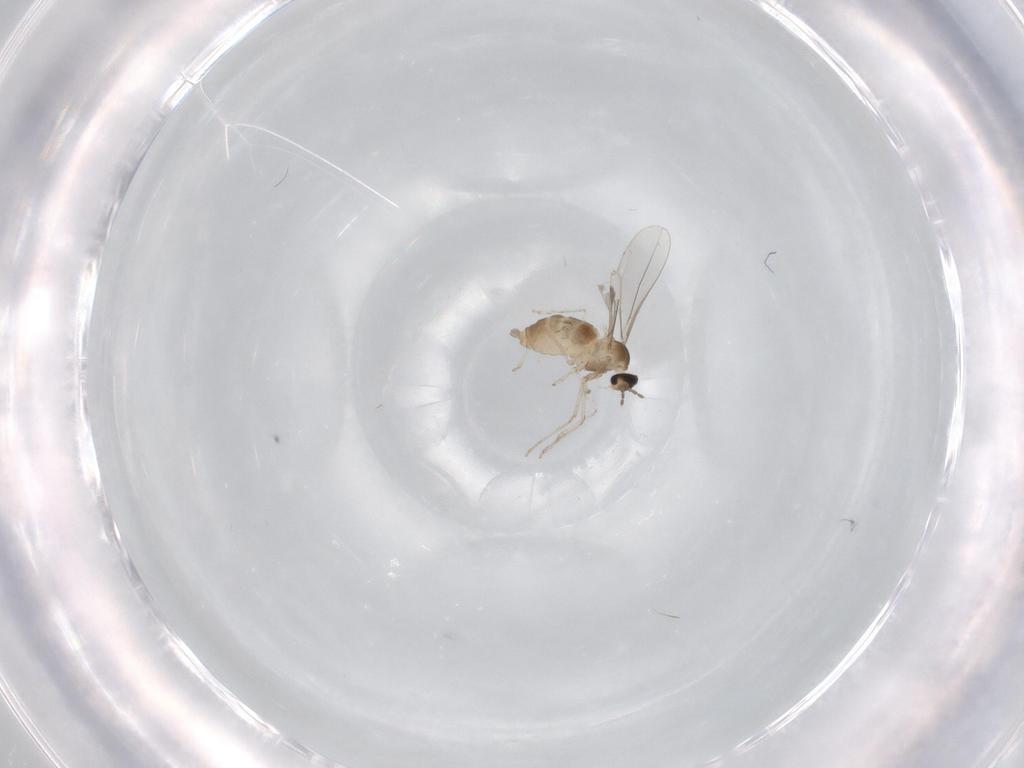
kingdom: Animalia
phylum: Arthropoda
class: Insecta
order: Diptera
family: Cecidomyiidae
